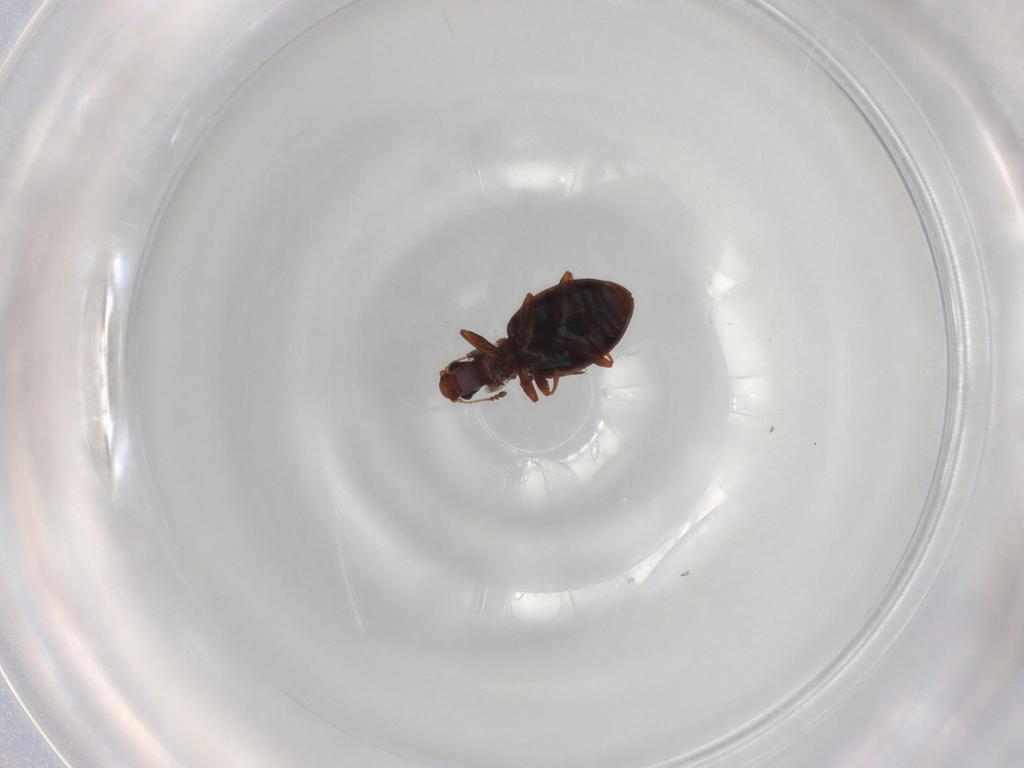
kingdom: Animalia
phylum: Arthropoda
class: Insecta
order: Coleoptera
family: Latridiidae
